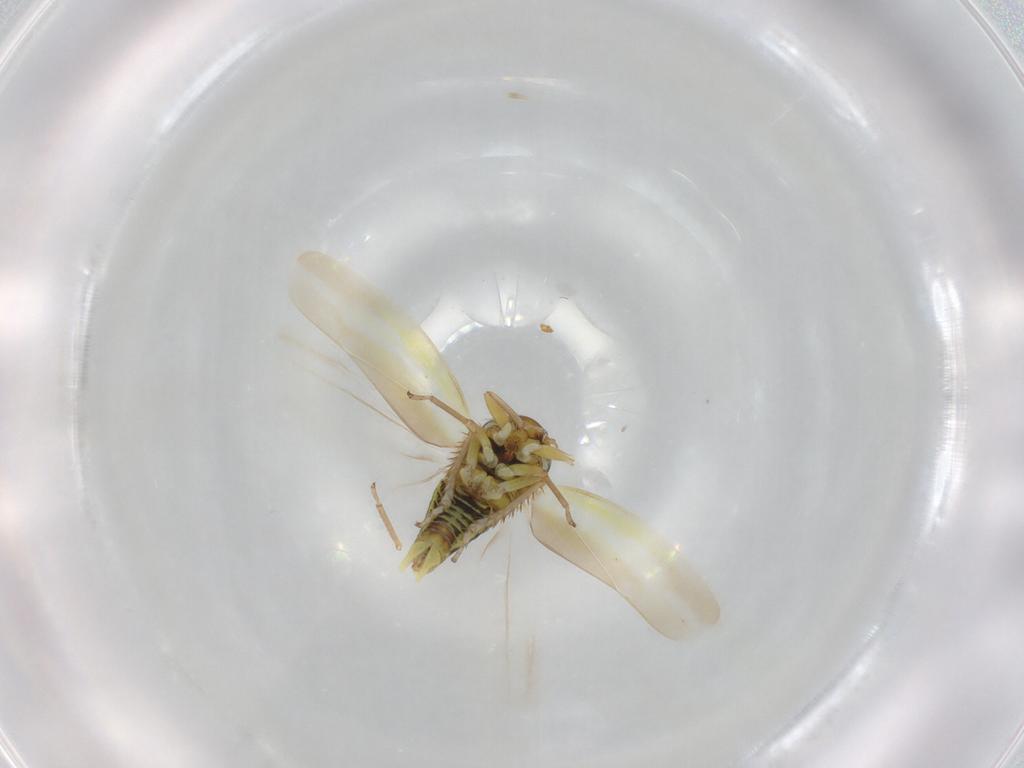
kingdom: Animalia
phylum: Arthropoda
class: Insecta
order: Hemiptera
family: Cicadellidae
